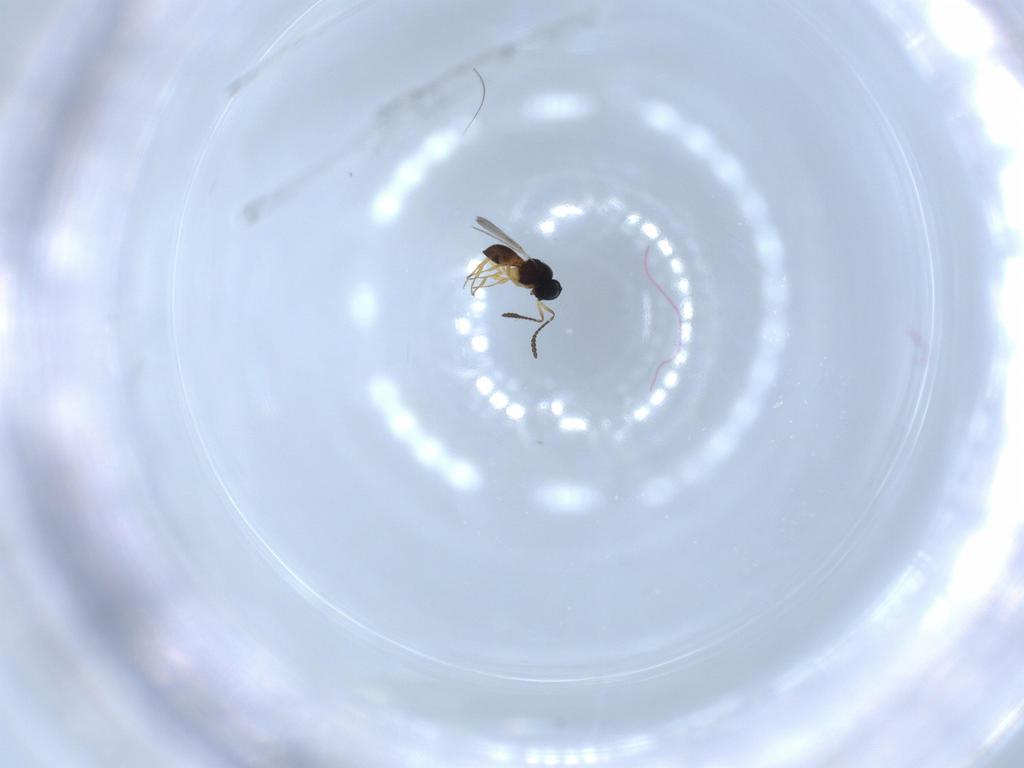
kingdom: Animalia
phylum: Arthropoda
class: Insecta
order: Hymenoptera
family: Scelionidae
